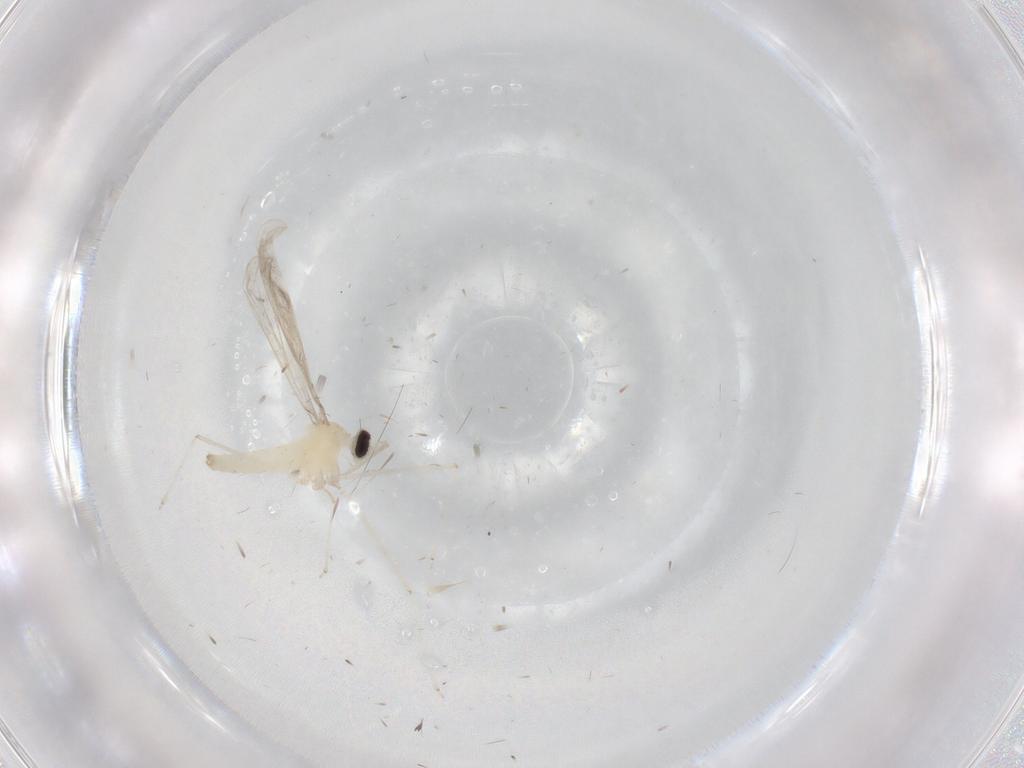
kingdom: Animalia
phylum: Arthropoda
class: Insecta
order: Diptera
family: Cecidomyiidae
